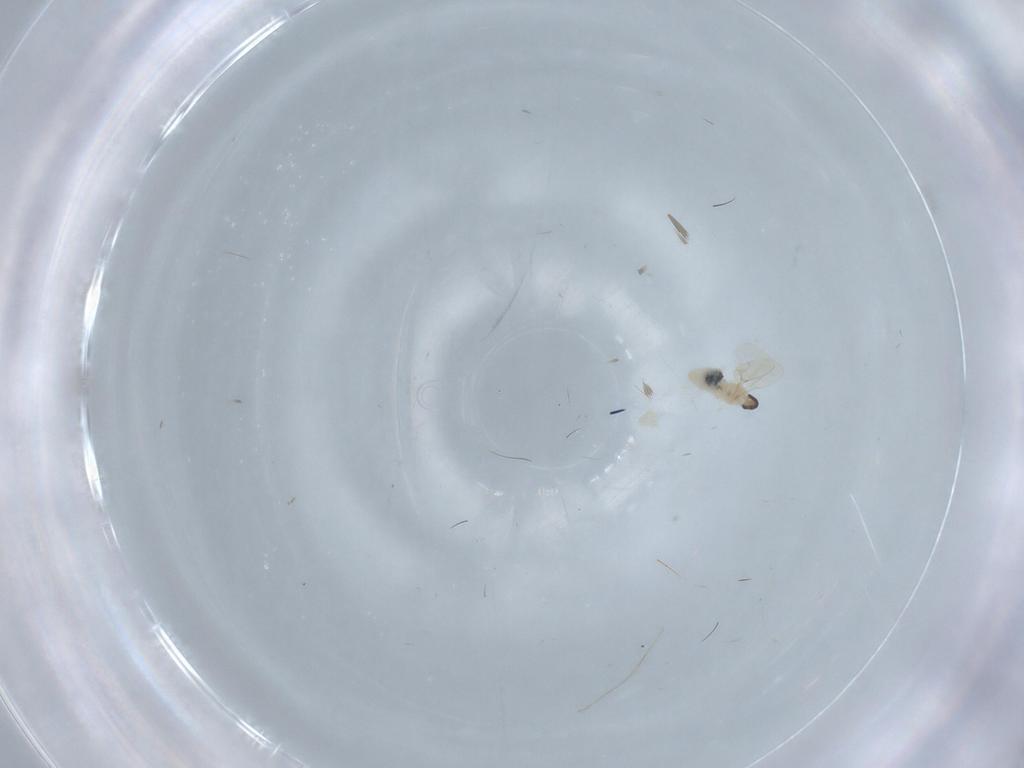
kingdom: Animalia
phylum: Arthropoda
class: Insecta
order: Diptera
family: Cecidomyiidae
